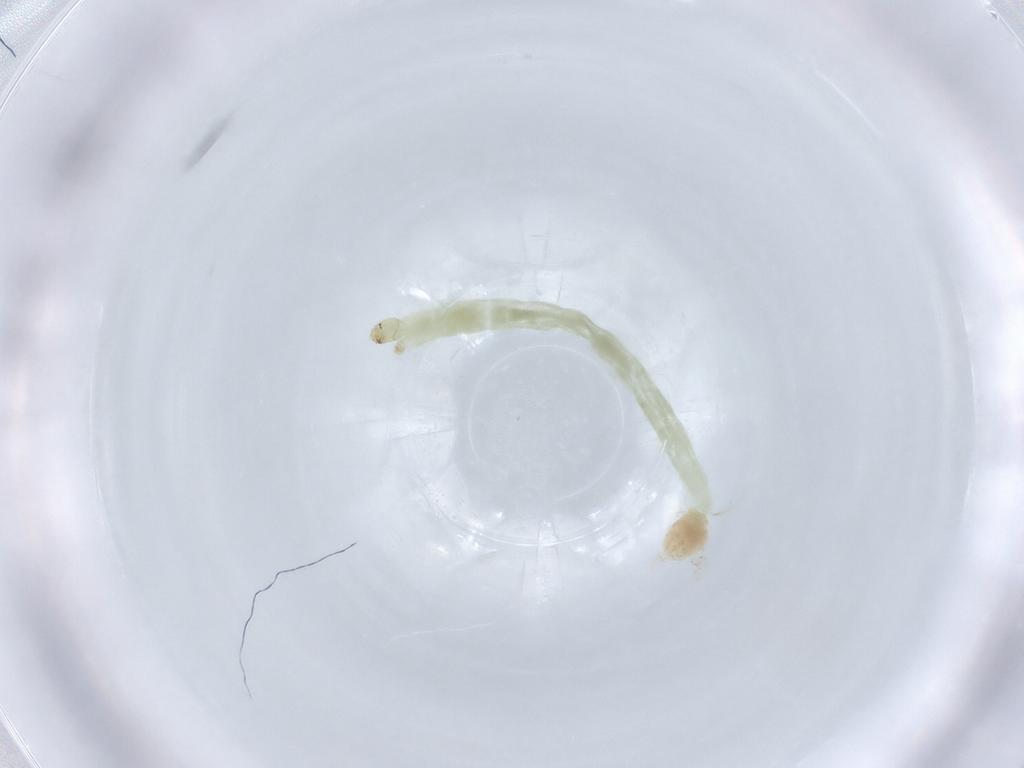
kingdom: Animalia
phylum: Arthropoda
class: Insecta
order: Diptera
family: Chironomidae
